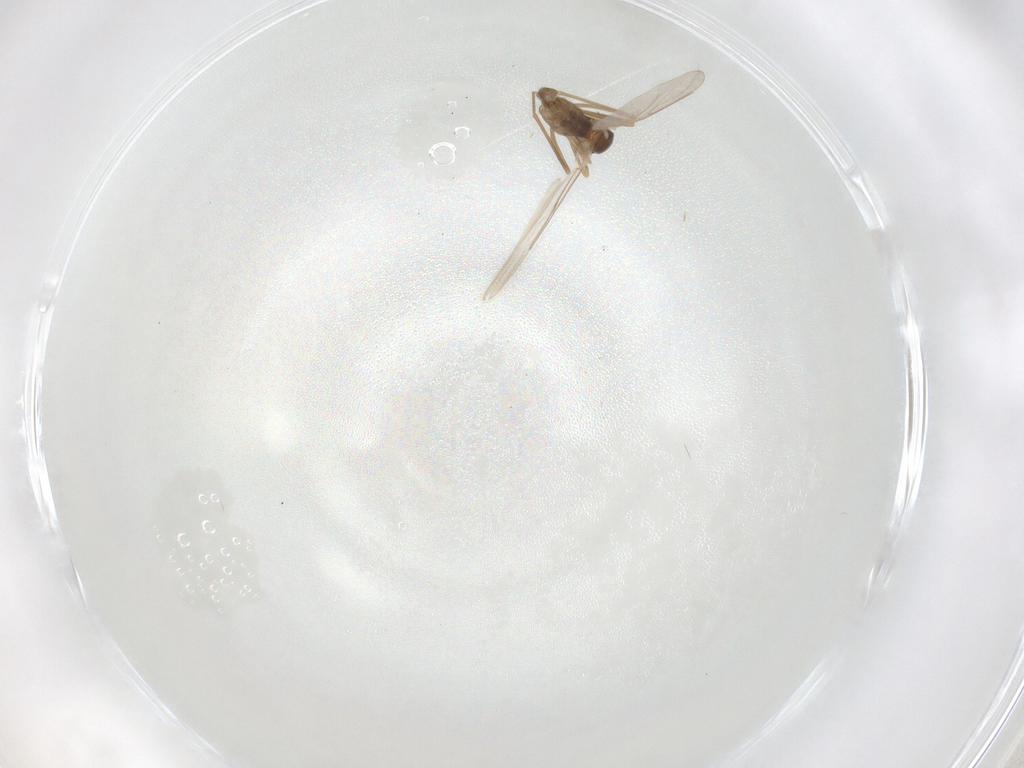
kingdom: Animalia
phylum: Arthropoda
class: Insecta
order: Diptera
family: Cecidomyiidae
